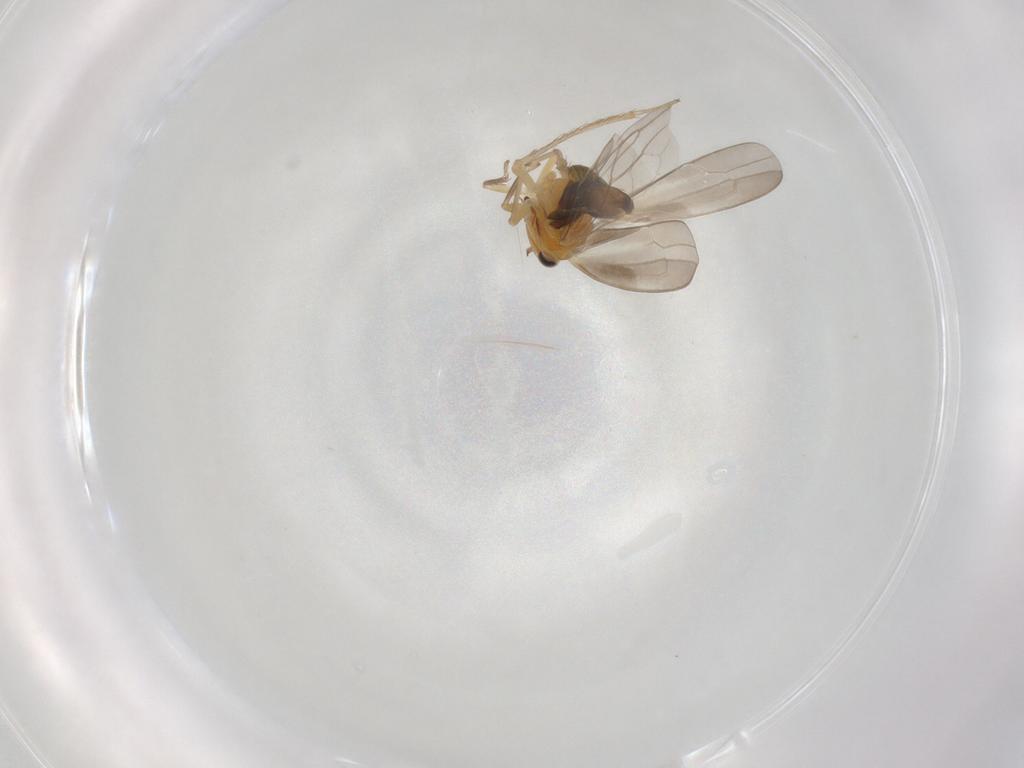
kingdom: Animalia
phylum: Arthropoda
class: Insecta
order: Hemiptera
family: Cicadellidae
